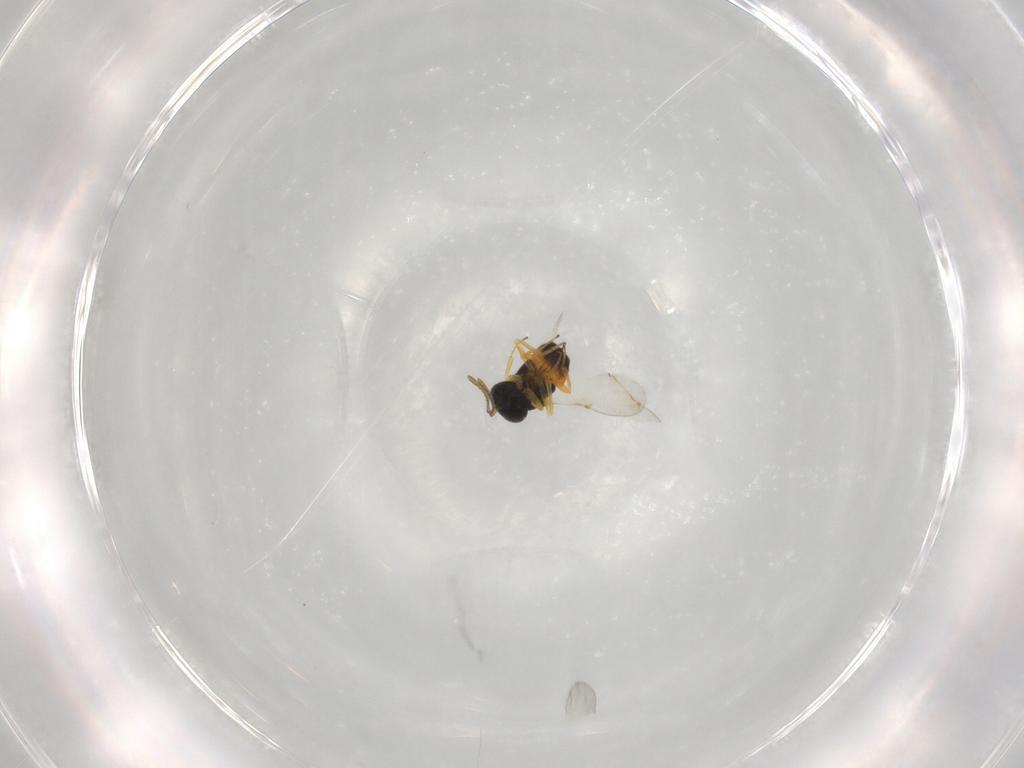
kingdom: Animalia
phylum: Arthropoda
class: Insecta
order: Hymenoptera
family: Encyrtidae
